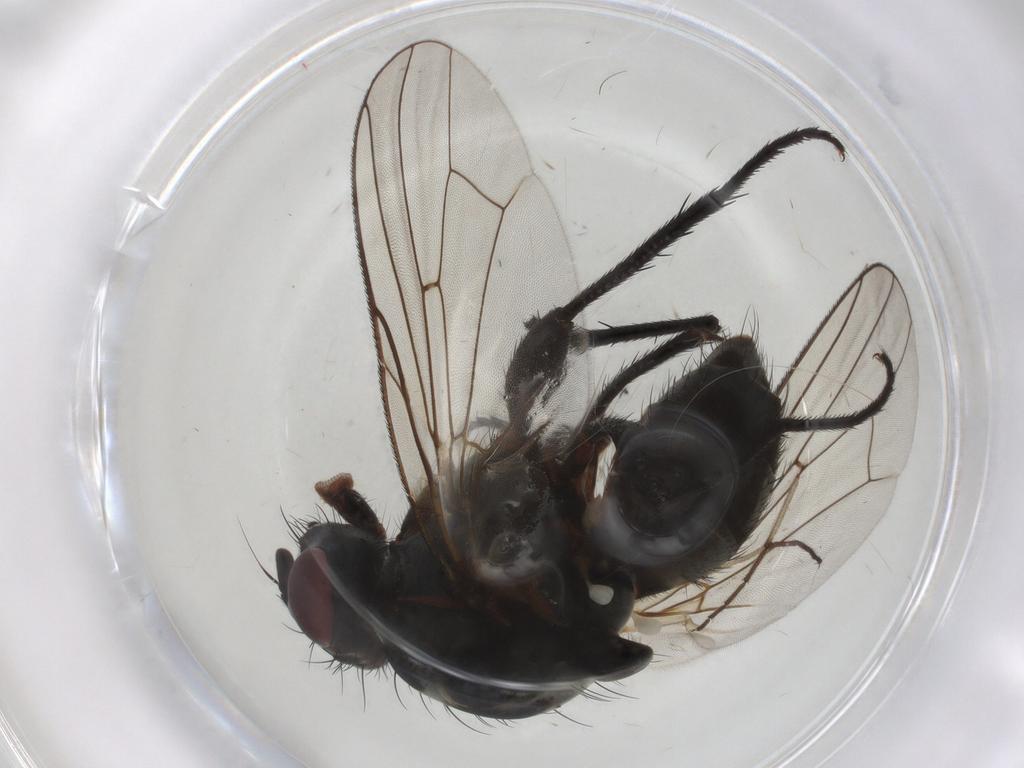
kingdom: Animalia
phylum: Arthropoda
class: Insecta
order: Diptera
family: Anthomyiidae
